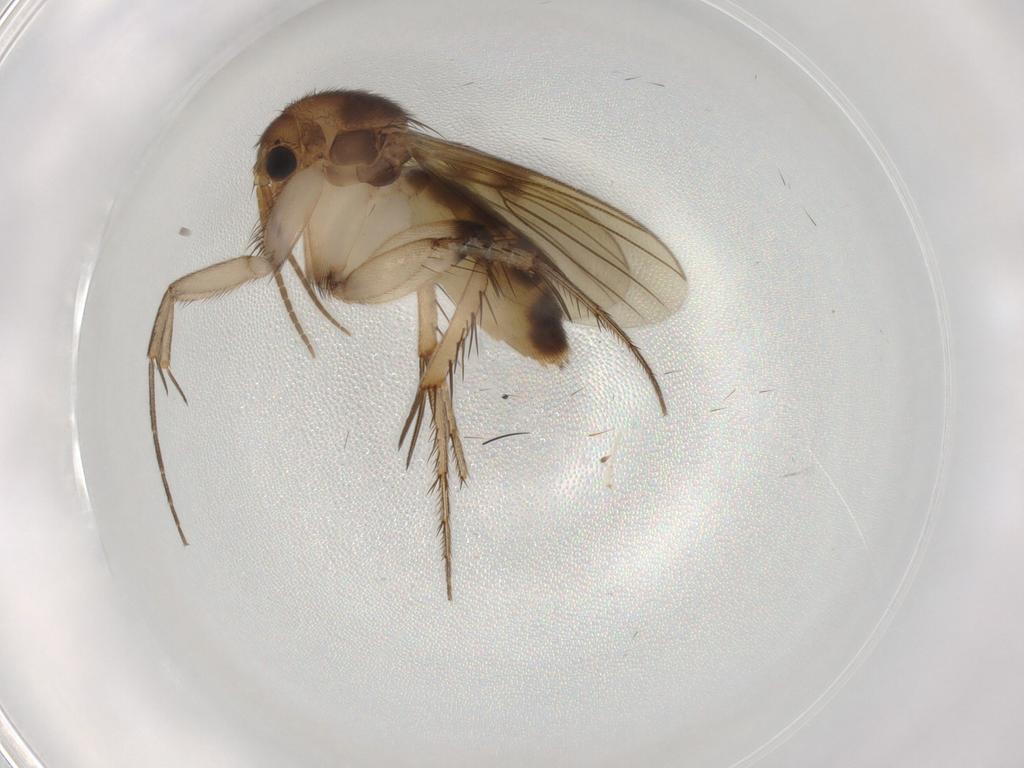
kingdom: Animalia
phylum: Arthropoda
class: Insecta
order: Diptera
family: Mycetophilidae
